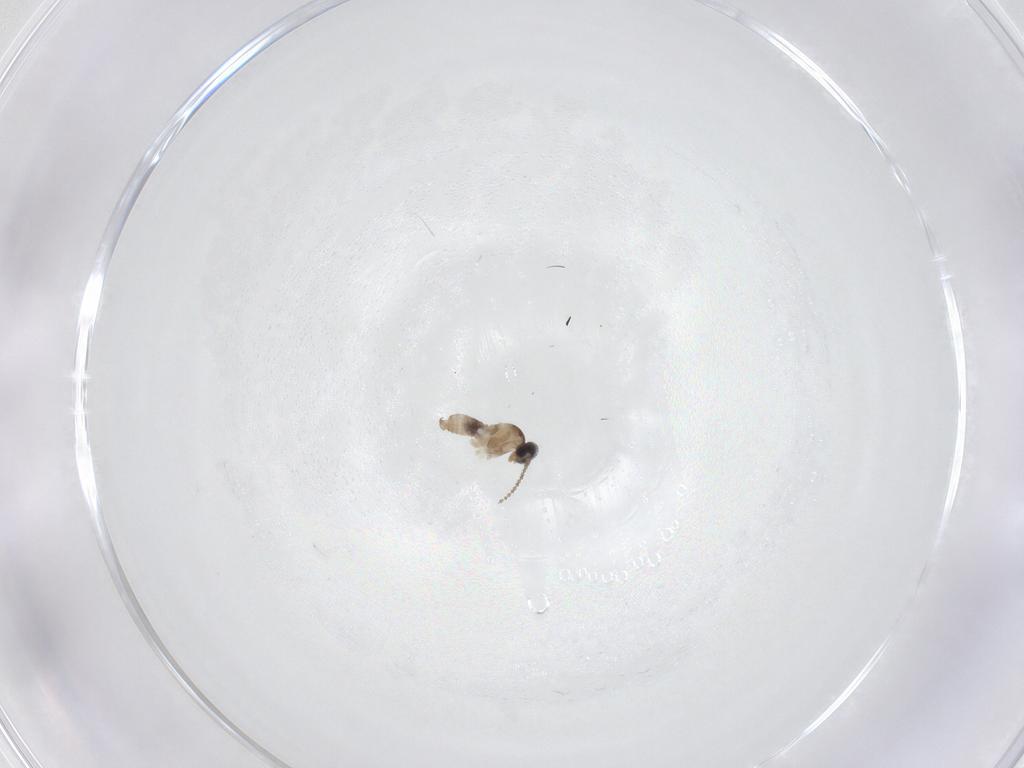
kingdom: Animalia
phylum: Arthropoda
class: Insecta
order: Diptera
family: Cecidomyiidae
